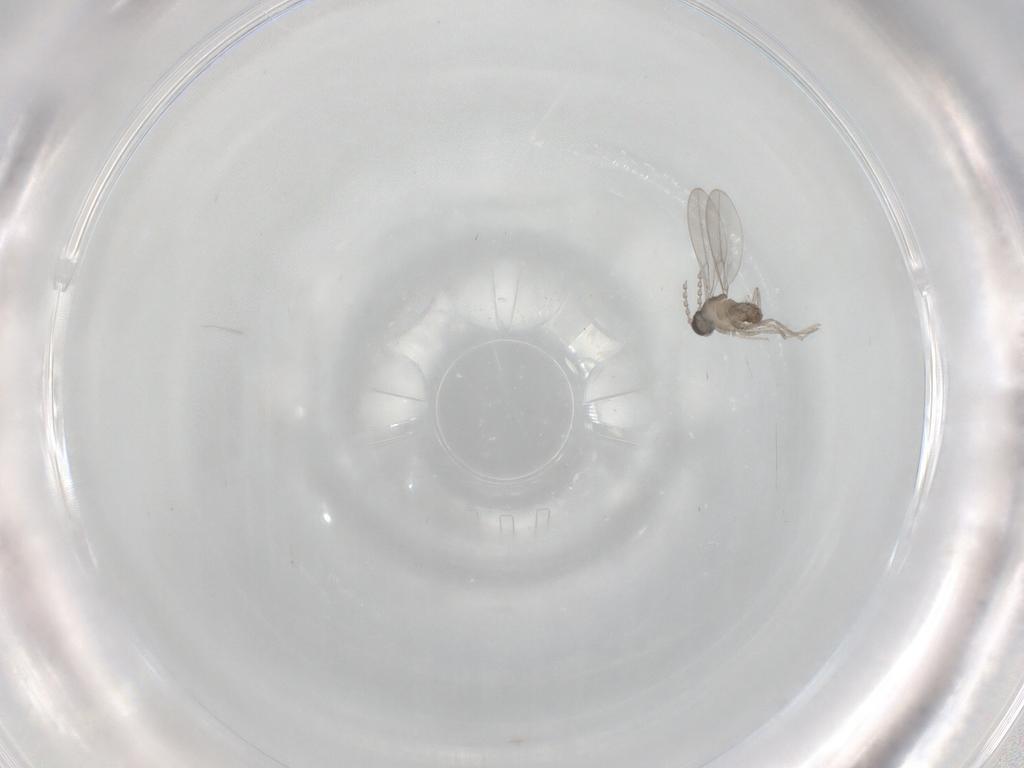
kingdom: Animalia
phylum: Arthropoda
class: Insecta
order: Diptera
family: Cecidomyiidae
